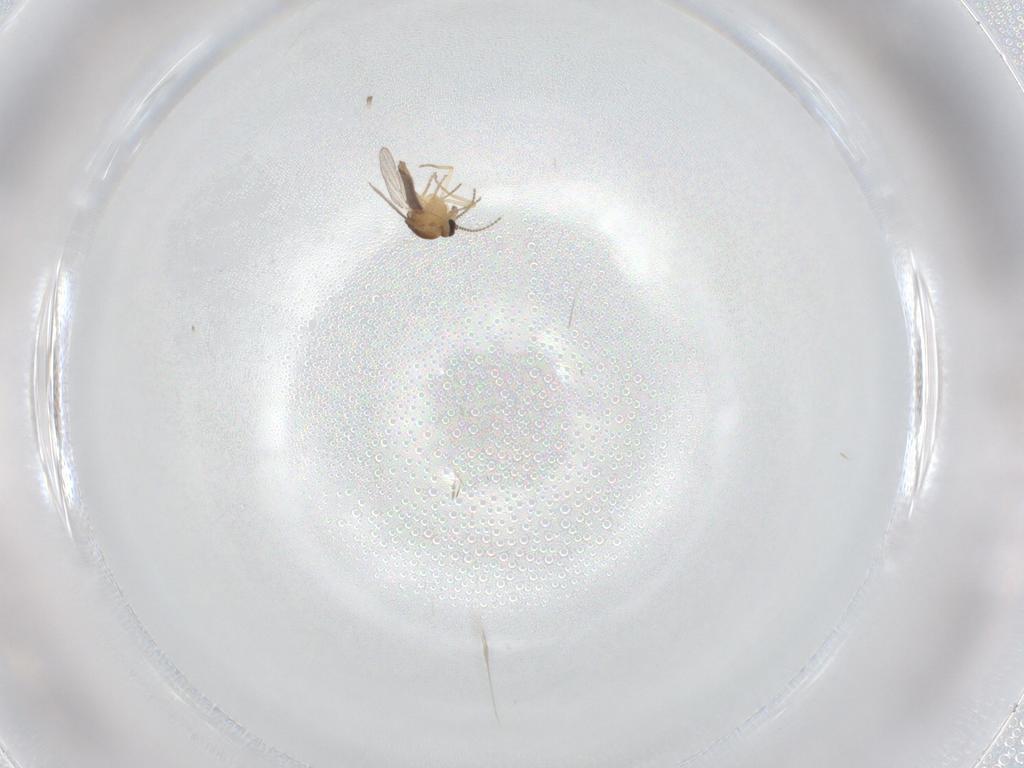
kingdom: Animalia
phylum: Arthropoda
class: Insecta
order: Diptera
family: Ceratopogonidae
